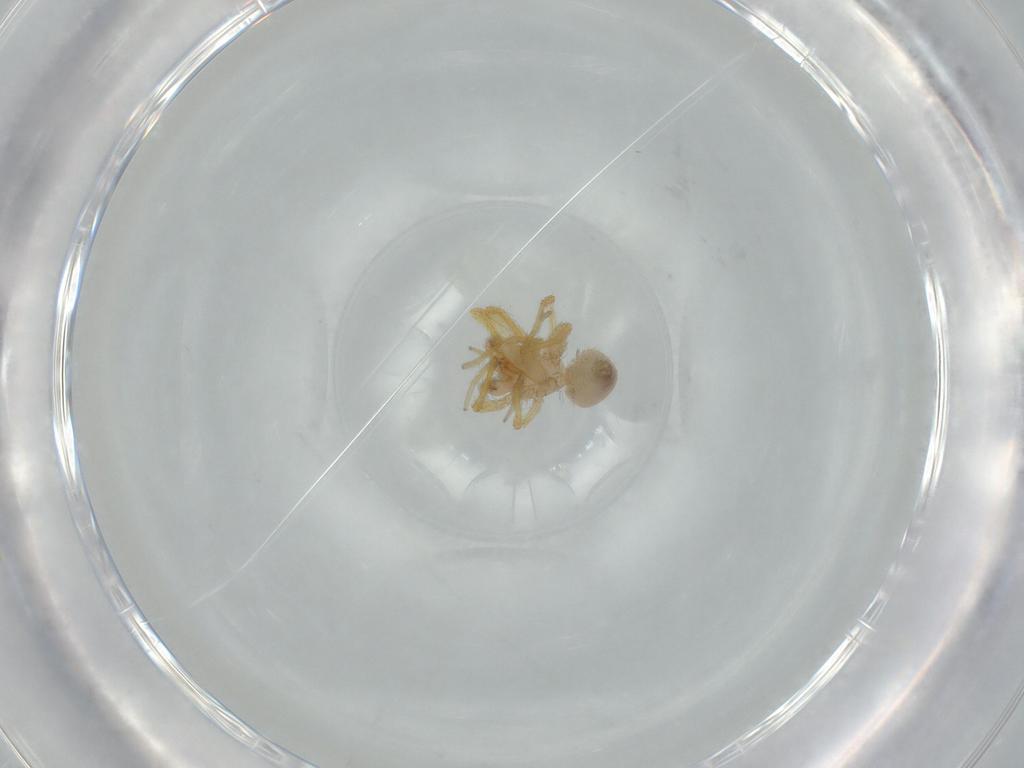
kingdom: Animalia
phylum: Arthropoda
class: Arachnida
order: Araneae
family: Oonopidae
